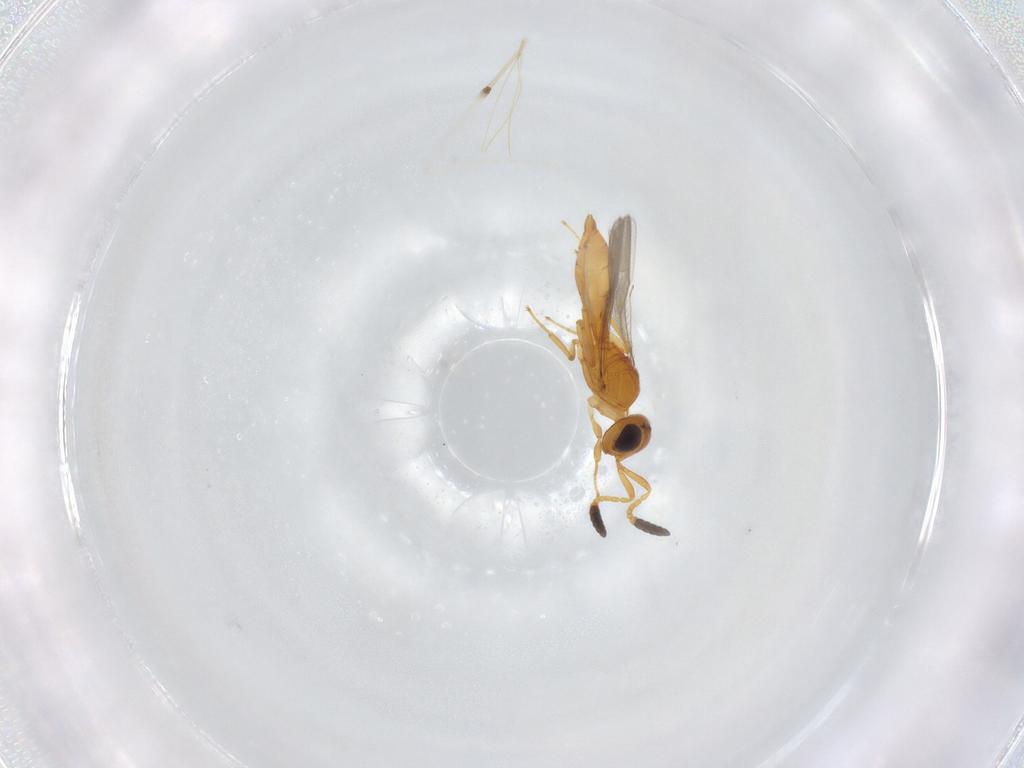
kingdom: Animalia
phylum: Arthropoda
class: Insecta
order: Hymenoptera
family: Scelionidae
